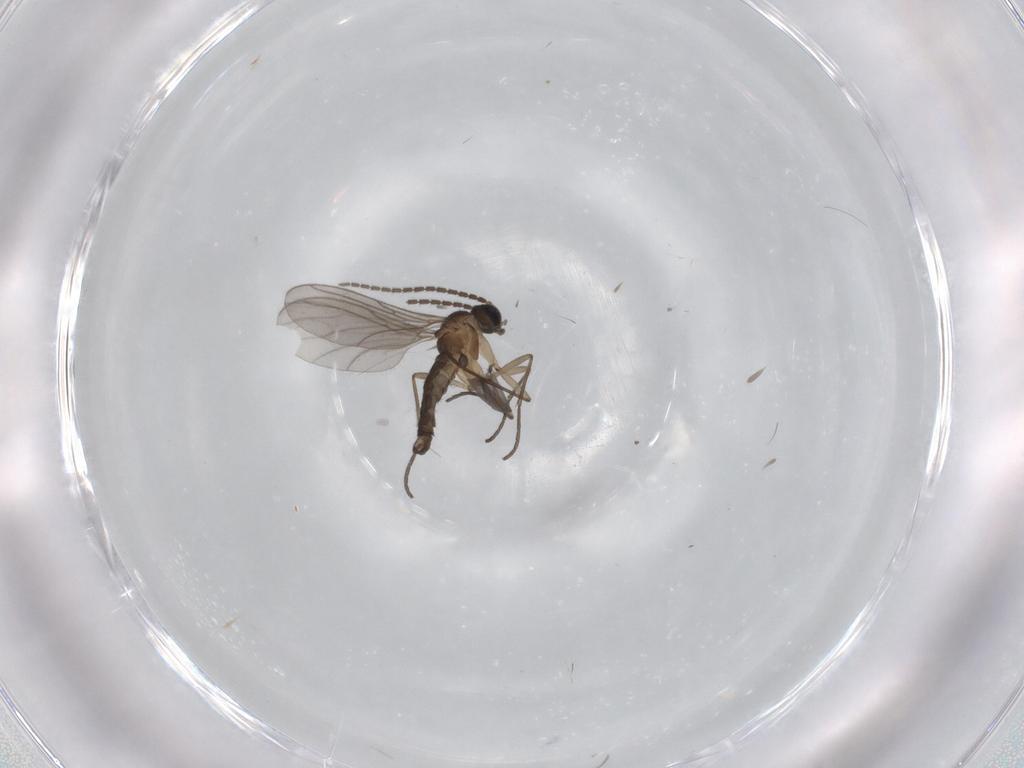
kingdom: Animalia
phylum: Arthropoda
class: Insecta
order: Diptera
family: Sciaridae
